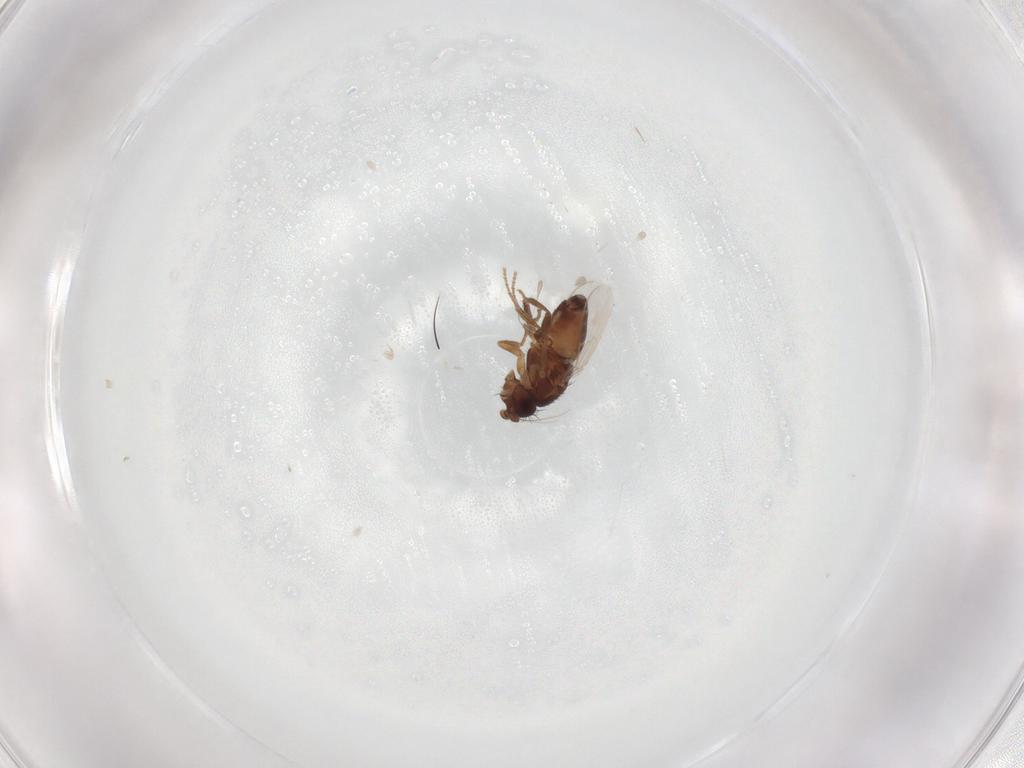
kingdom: Animalia
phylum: Arthropoda
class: Insecta
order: Diptera
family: Sphaeroceridae
